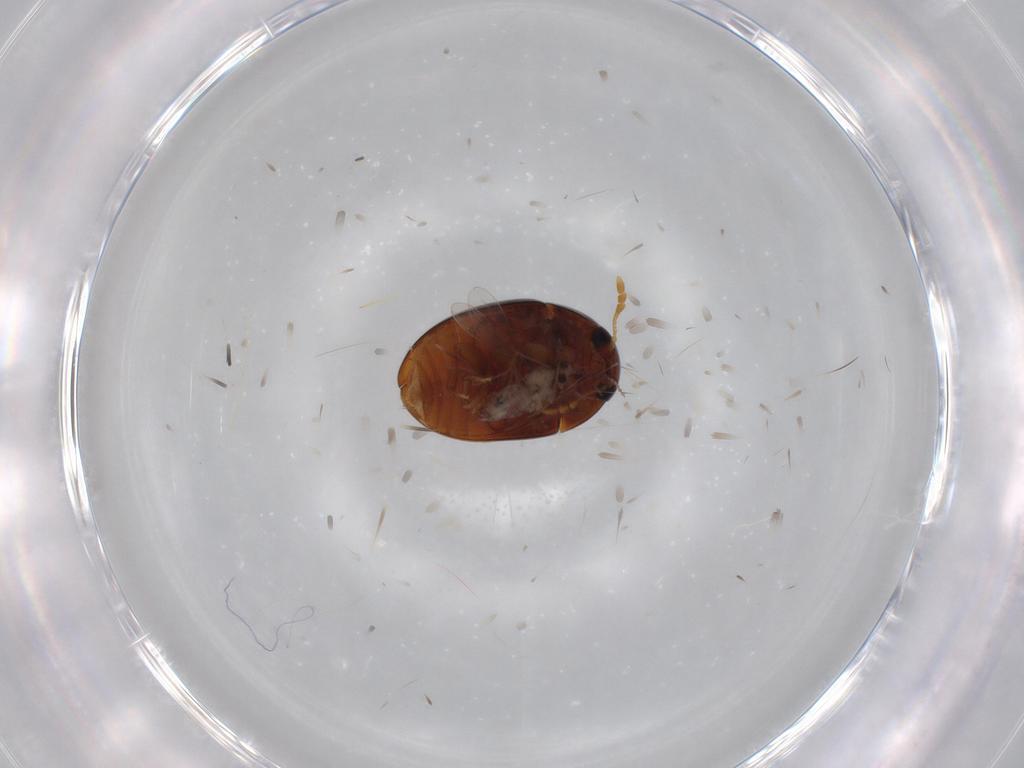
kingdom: Animalia
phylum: Arthropoda
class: Insecta
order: Coleoptera
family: Phalacridae
